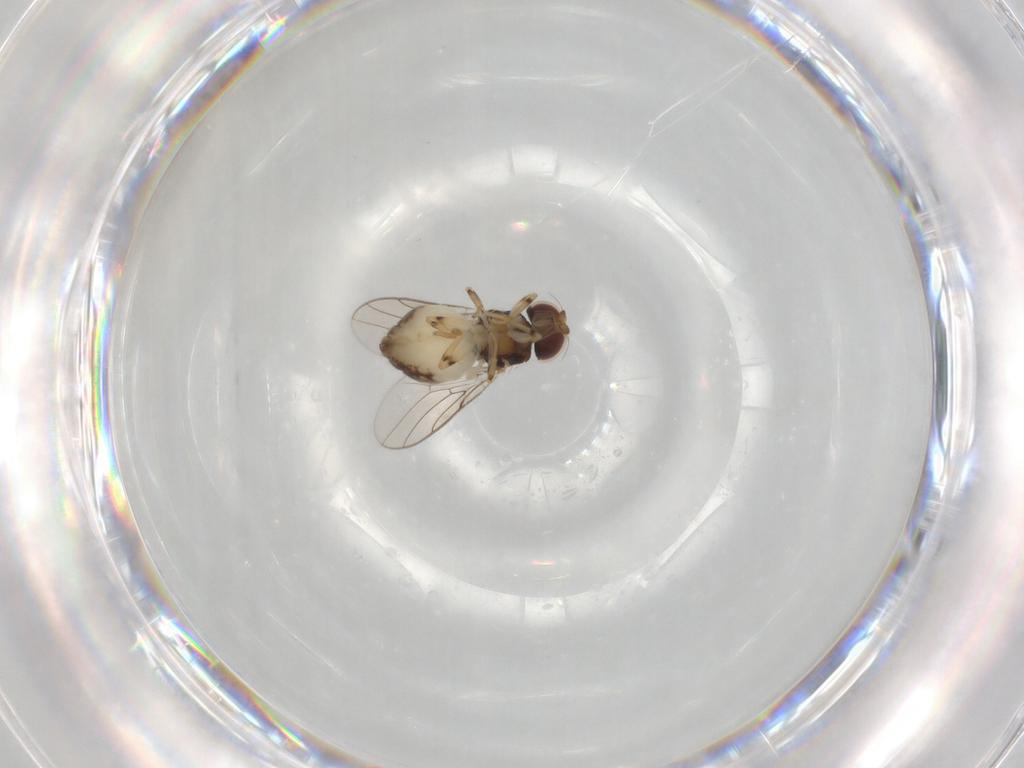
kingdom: Animalia
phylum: Arthropoda
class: Insecta
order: Diptera
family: Chloropidae
